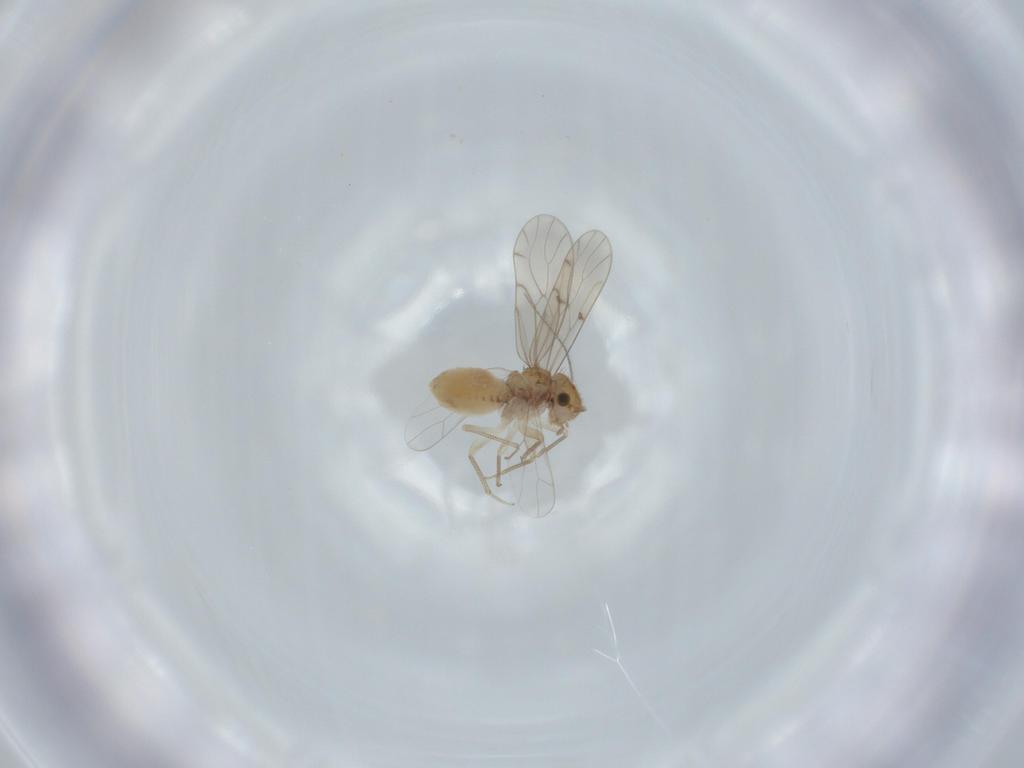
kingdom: Animalia
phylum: Arthropoda
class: Insecta
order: Psocodea
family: Ectopsocidae
